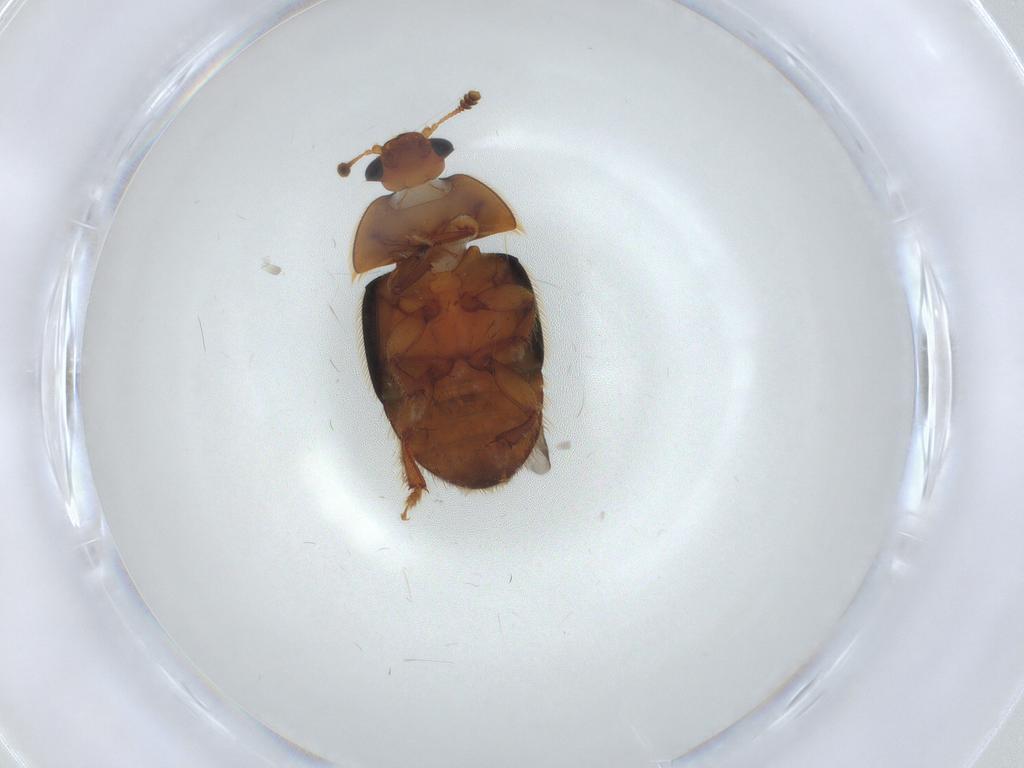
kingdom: Animalia
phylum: Arthropoda
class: Insecta
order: Coleoptera
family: Nitidulidae
